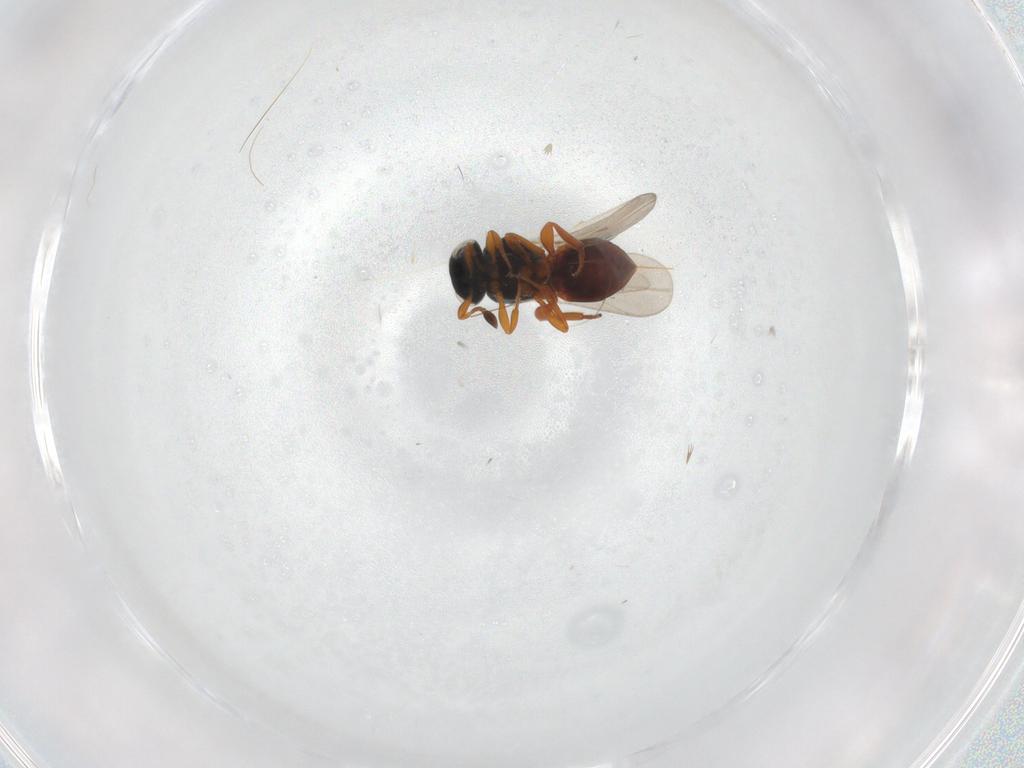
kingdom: Animalia
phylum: Arthropoda
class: Insecta
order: Hymenoptera
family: Platygastridae
